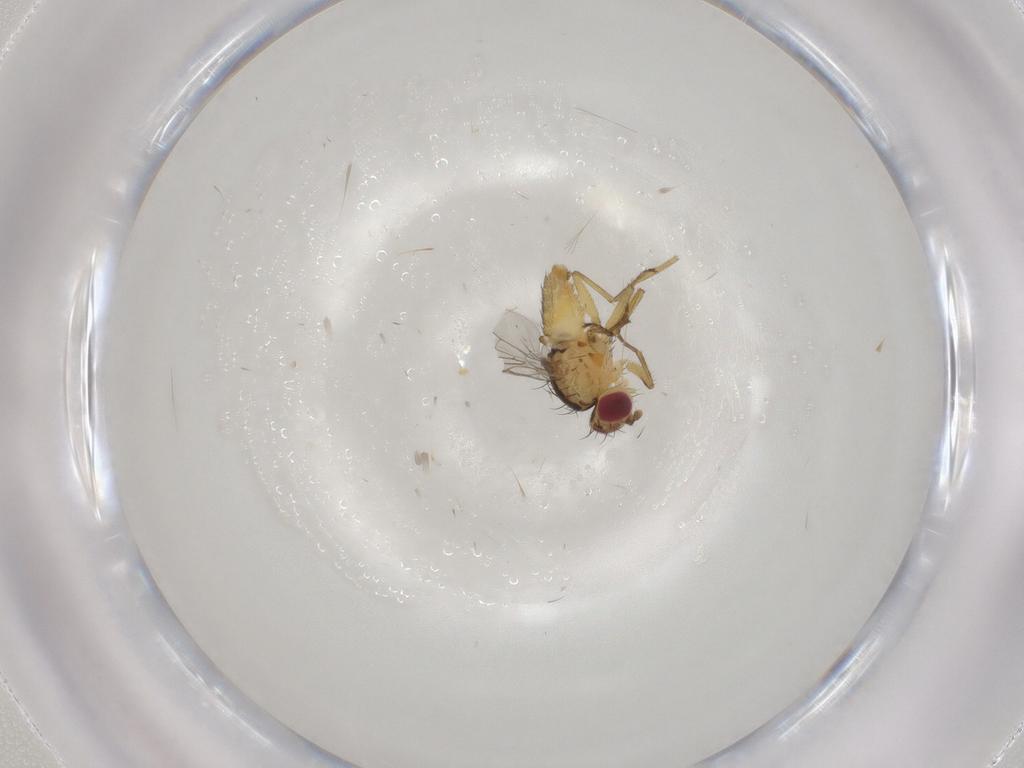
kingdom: Animalia
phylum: Arthropoda
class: Insecta
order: Diptera
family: Agromyzidae
